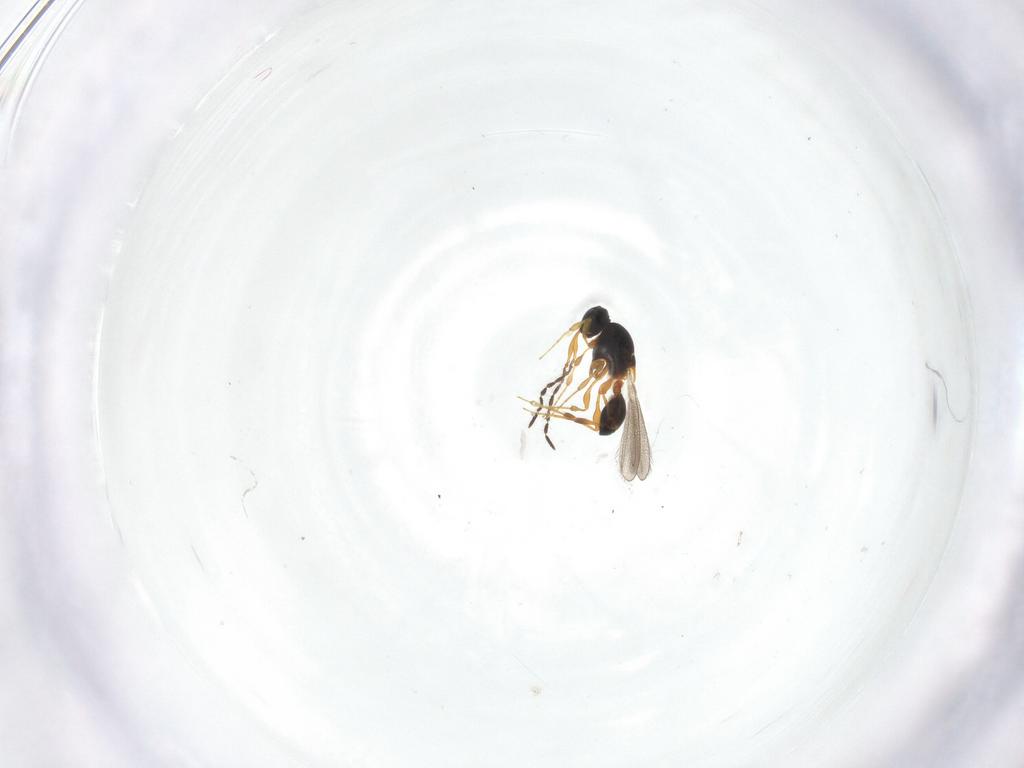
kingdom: Animalia
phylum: Arthropoda
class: Insecta
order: Hymenoptera
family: Platygastridae
